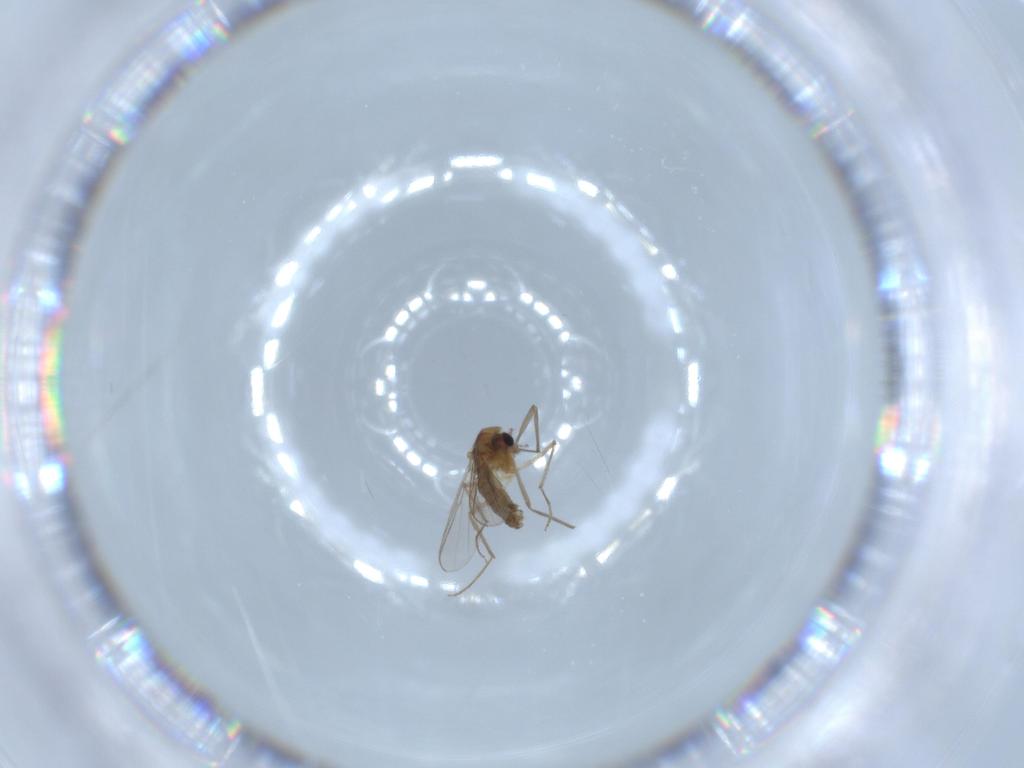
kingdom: Animalia
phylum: Arthropoda
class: Insecta
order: Diptera
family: Chironomidae
